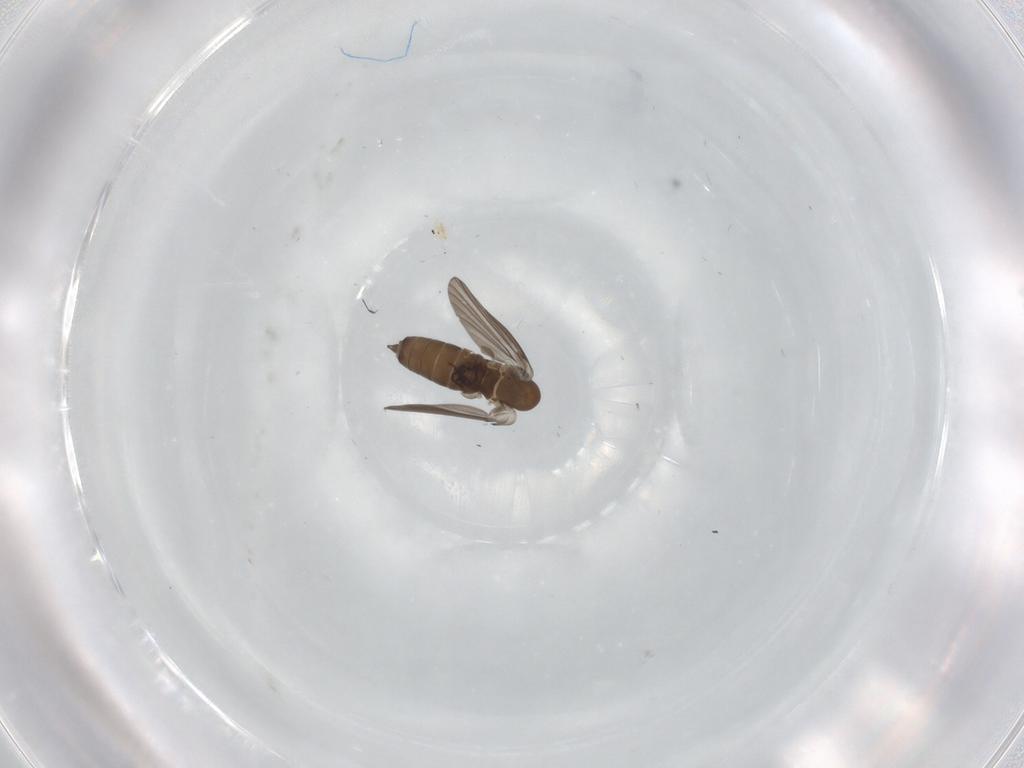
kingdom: Animalia
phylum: Arthropoda
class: Insecta
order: Diptera
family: Psychodidae
